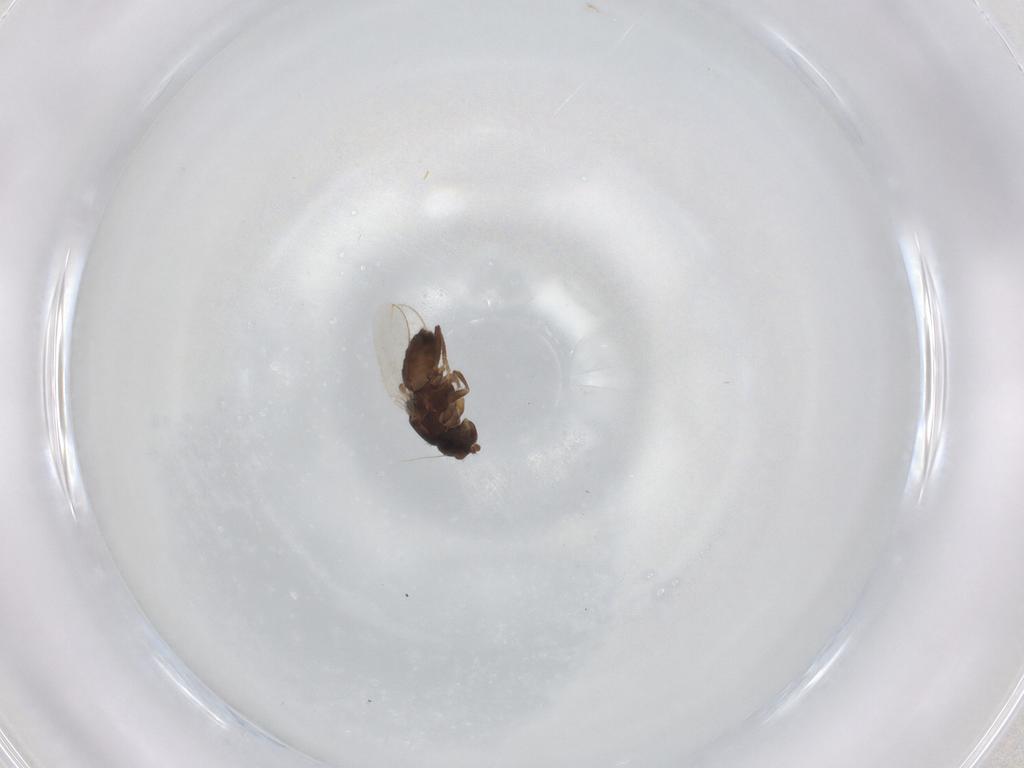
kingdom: Animalia
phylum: Arthropoda
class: Insecta
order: Diptera
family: Sphaeroceridae
